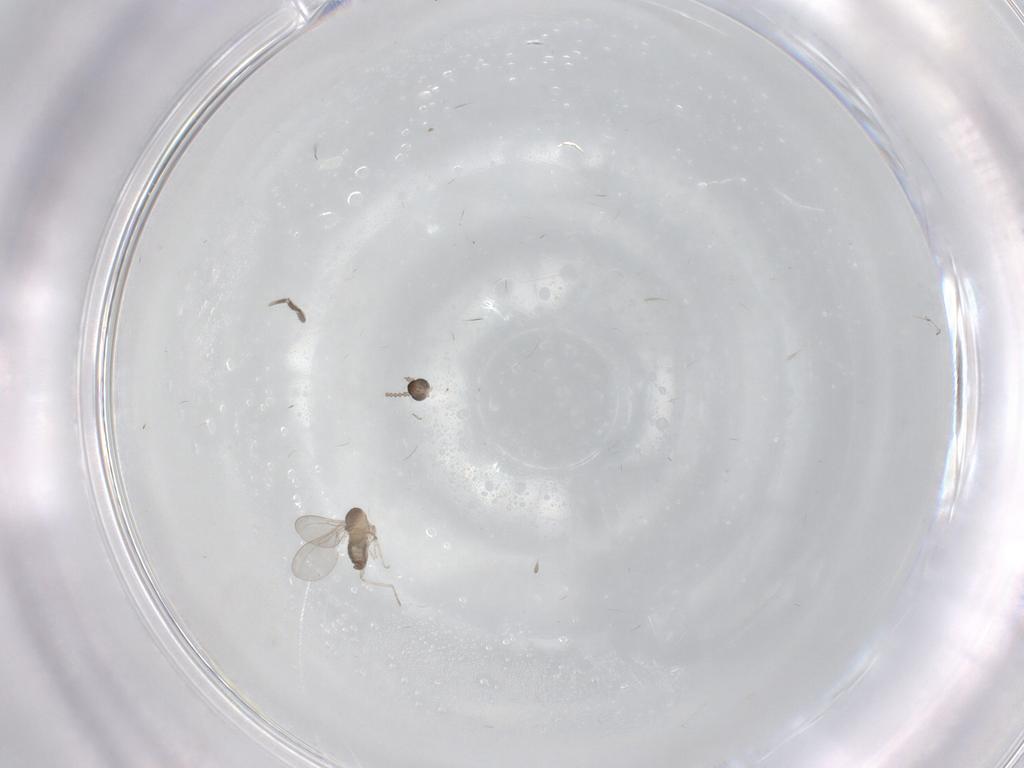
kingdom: Animalia
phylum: Arthropoda
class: Insecta
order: Diptera
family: Cecidomyiidae
